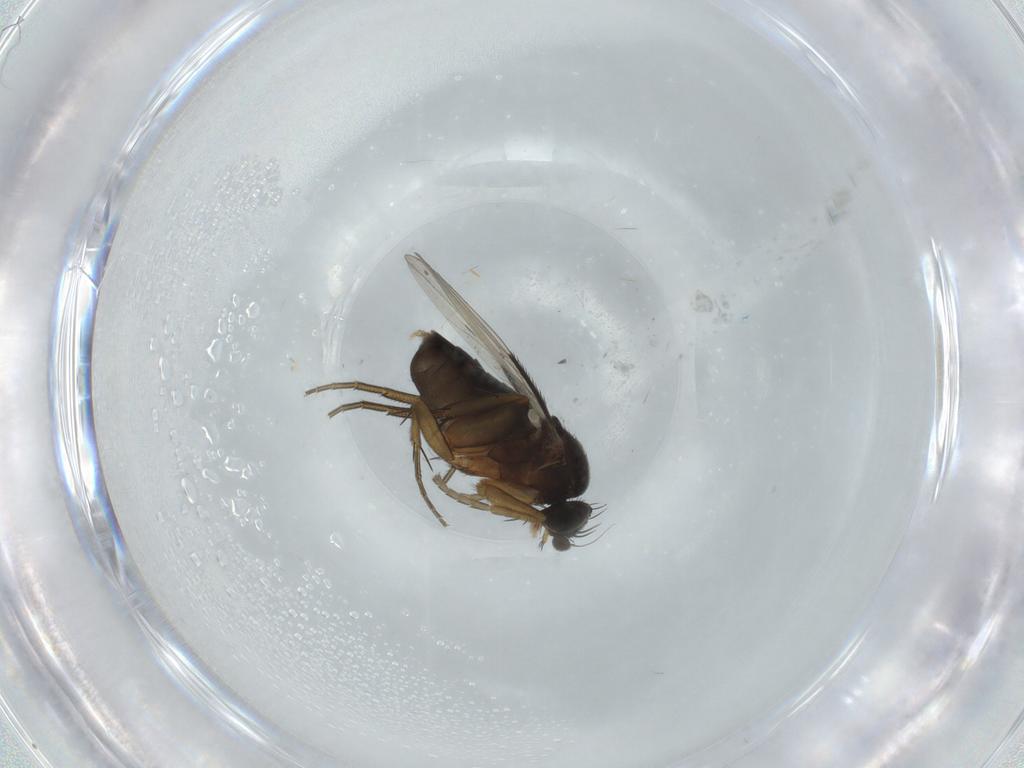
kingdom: Animalia
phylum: Arthropoda
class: Insecta
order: Diptera
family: Phoridae
